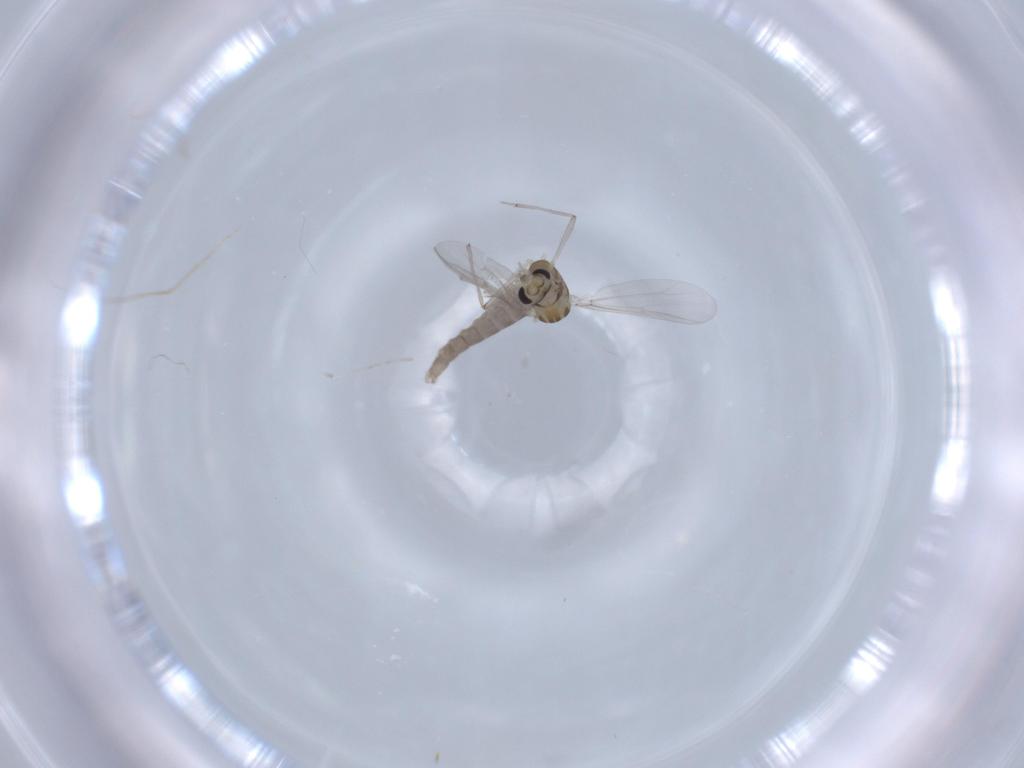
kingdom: Animalia
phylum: Arthropoda
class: Insecta
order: Diptera
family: Chironomidae
